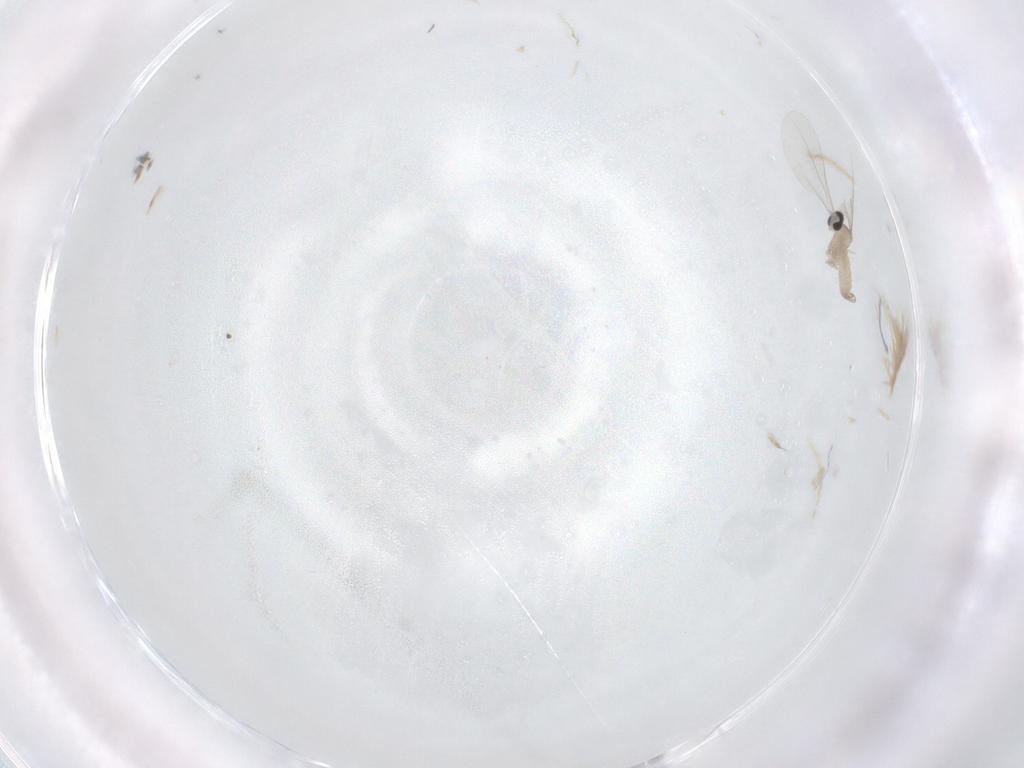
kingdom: Animalia
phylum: Arthropoda
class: Insecta
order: Diptera
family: Cecidomyiidae
